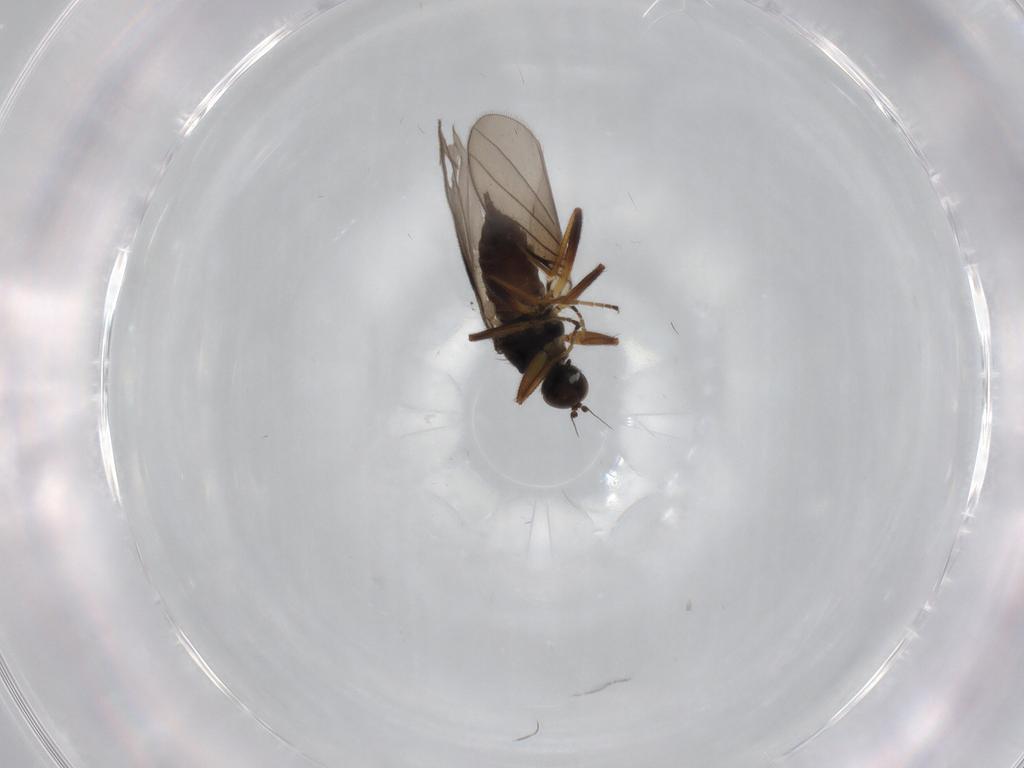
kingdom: Animalia
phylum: Arthropoda
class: Insecta
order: Diptera
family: Hybotidae
